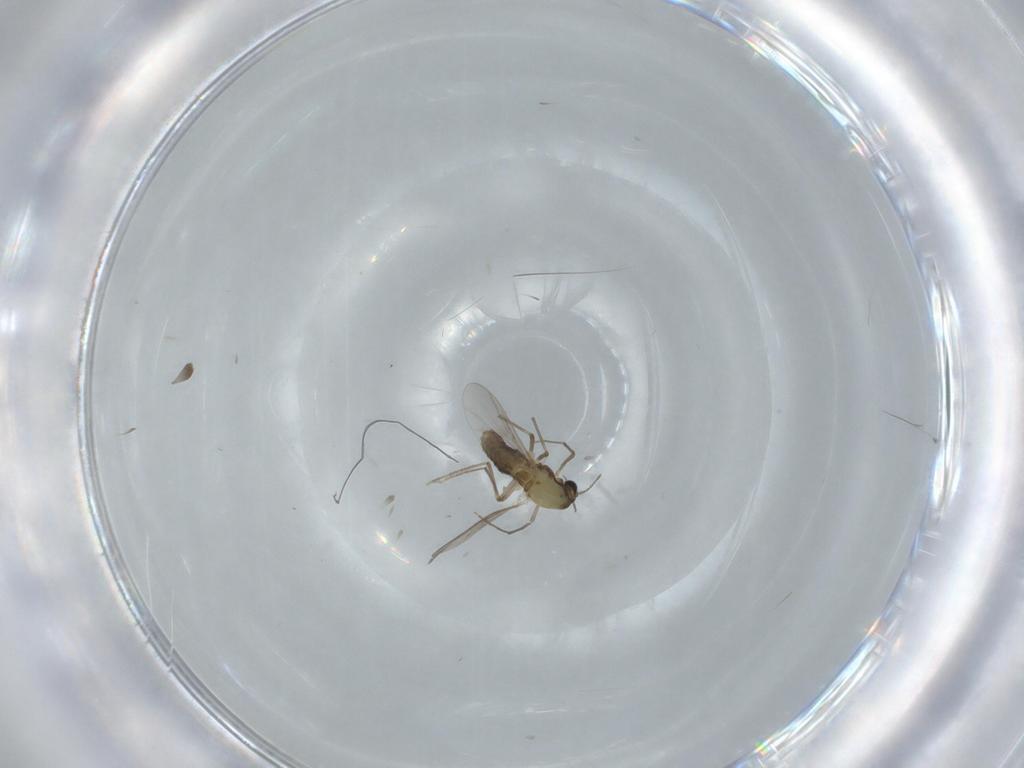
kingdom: Animalia
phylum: Arthropoda
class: Insecta
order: Diptera
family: Chironomidae
